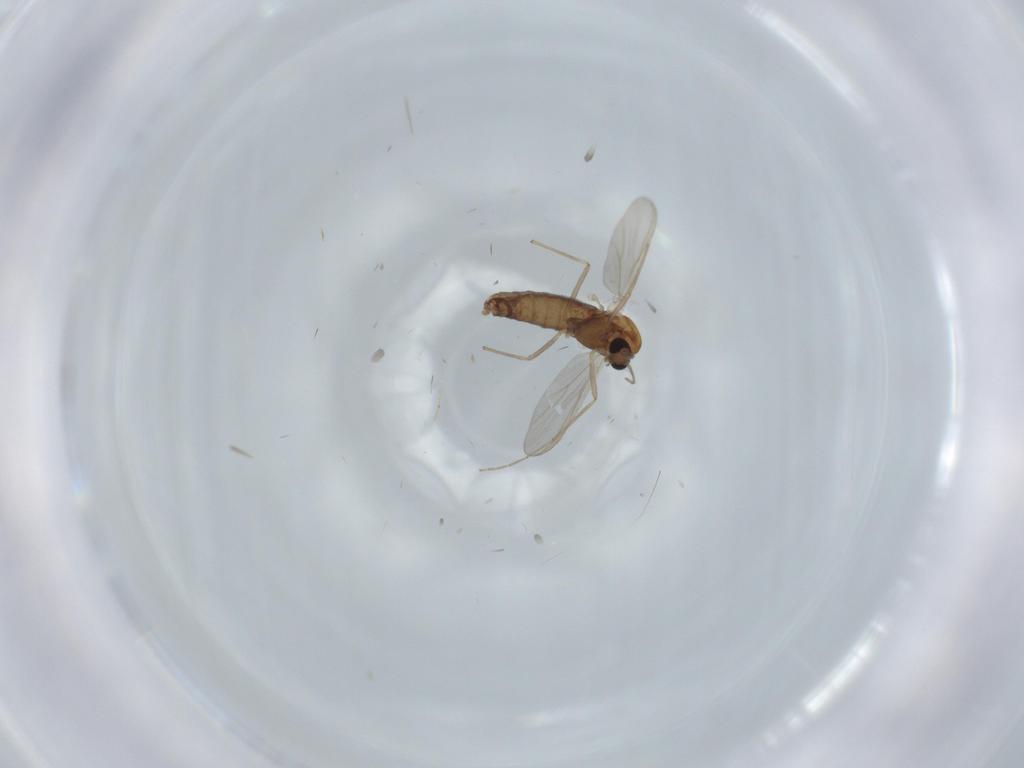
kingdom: Animalia
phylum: Arthropoda
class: Insecta
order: Diptera
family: Chironomidae
